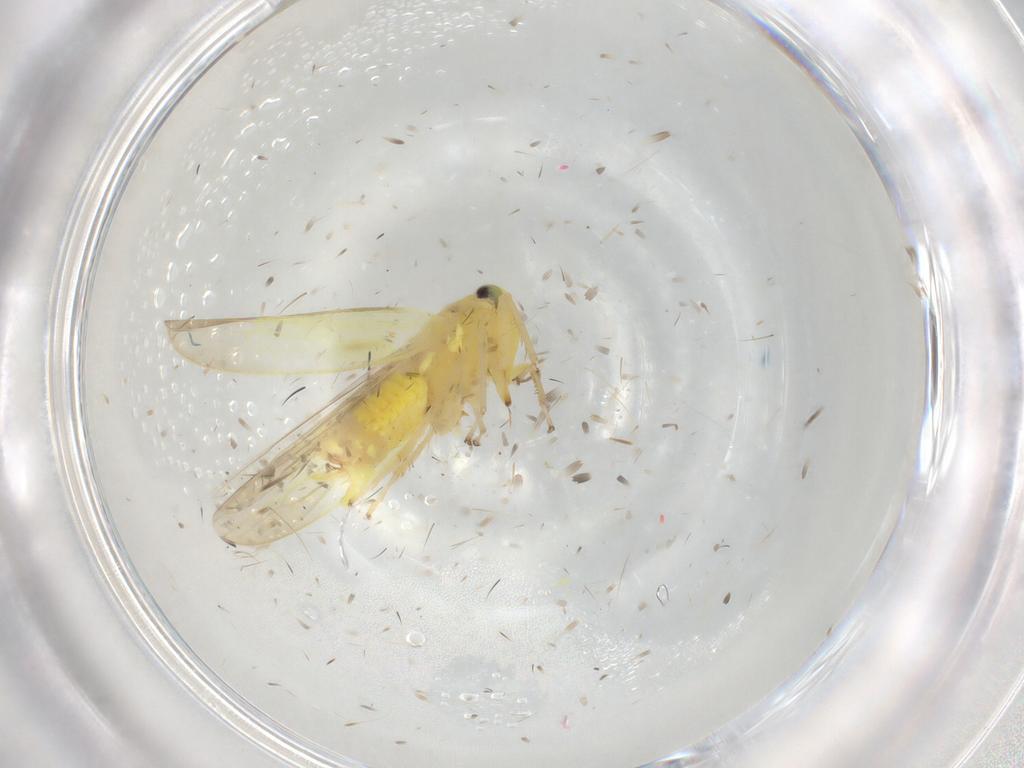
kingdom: Animalia
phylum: Arthropoda
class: Insecta
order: Hemiptera
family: Cicadellidae
